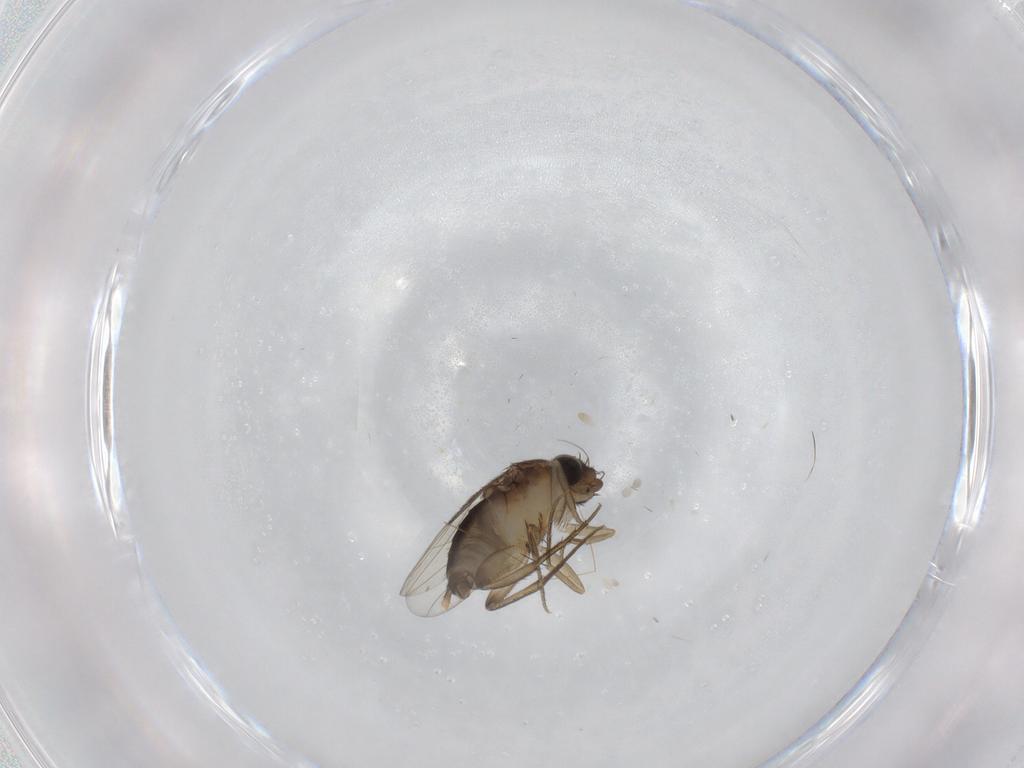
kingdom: Animalia
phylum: Arthropoda
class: Insecta
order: Diptera
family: Phoridae
